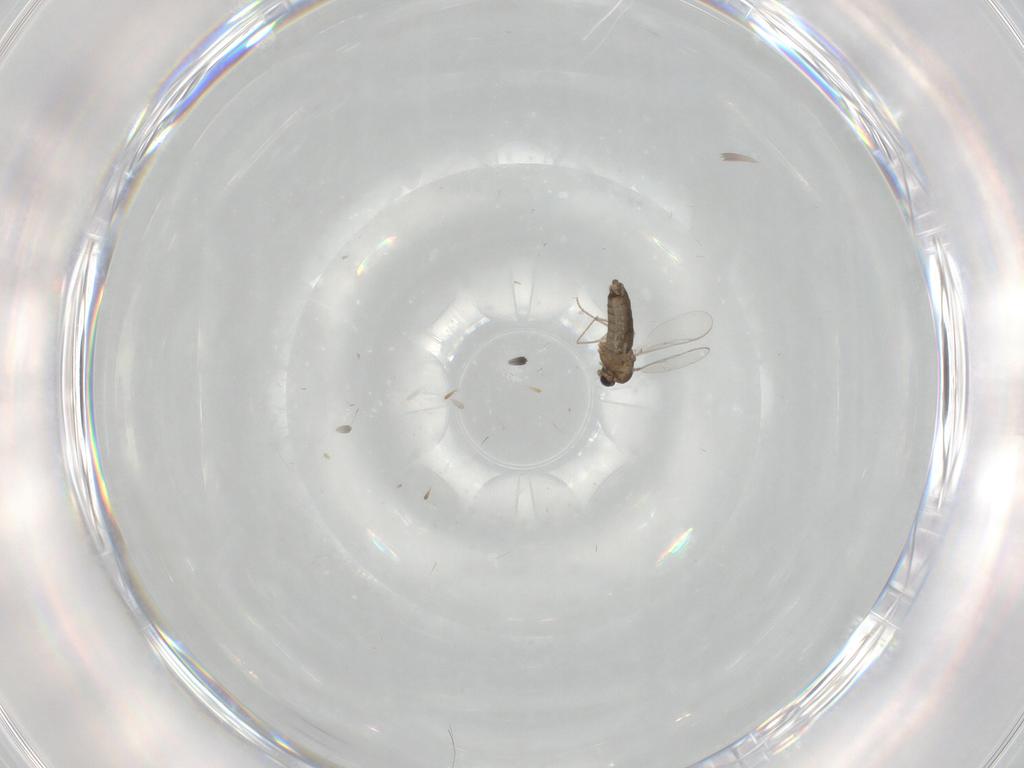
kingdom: Animalia
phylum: Arthropoda
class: Insecta
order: Diptera
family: Chironomidae
